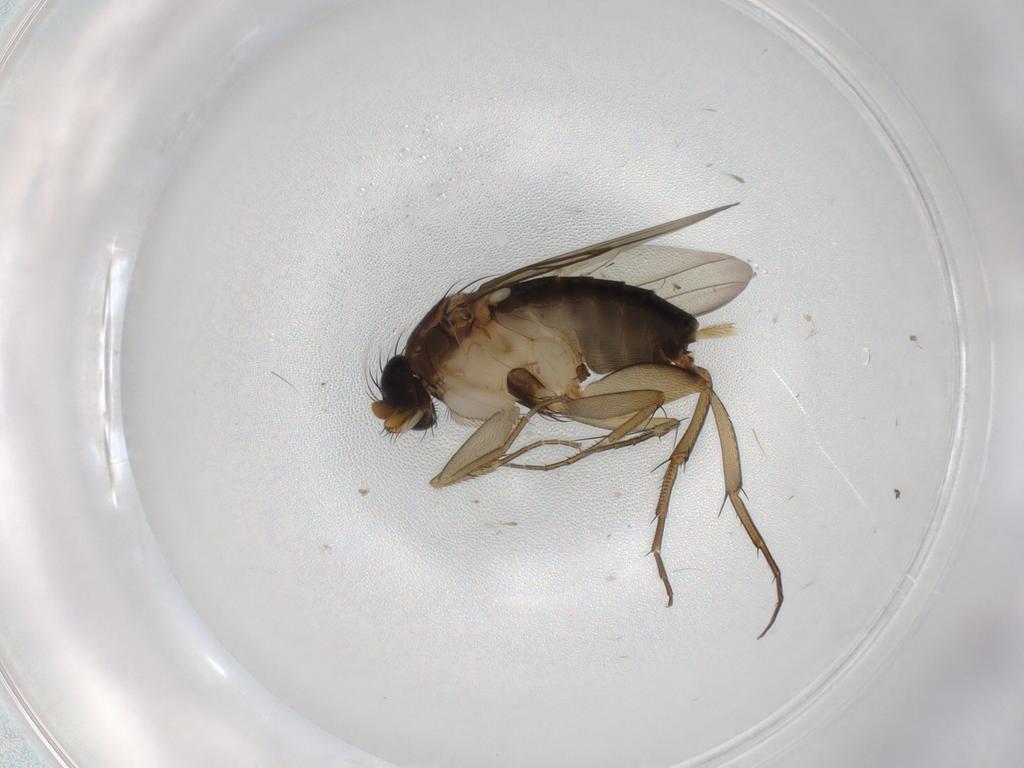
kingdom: Animalia
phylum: Arthropoda
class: Insecta
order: Diptera
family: Phoridae
